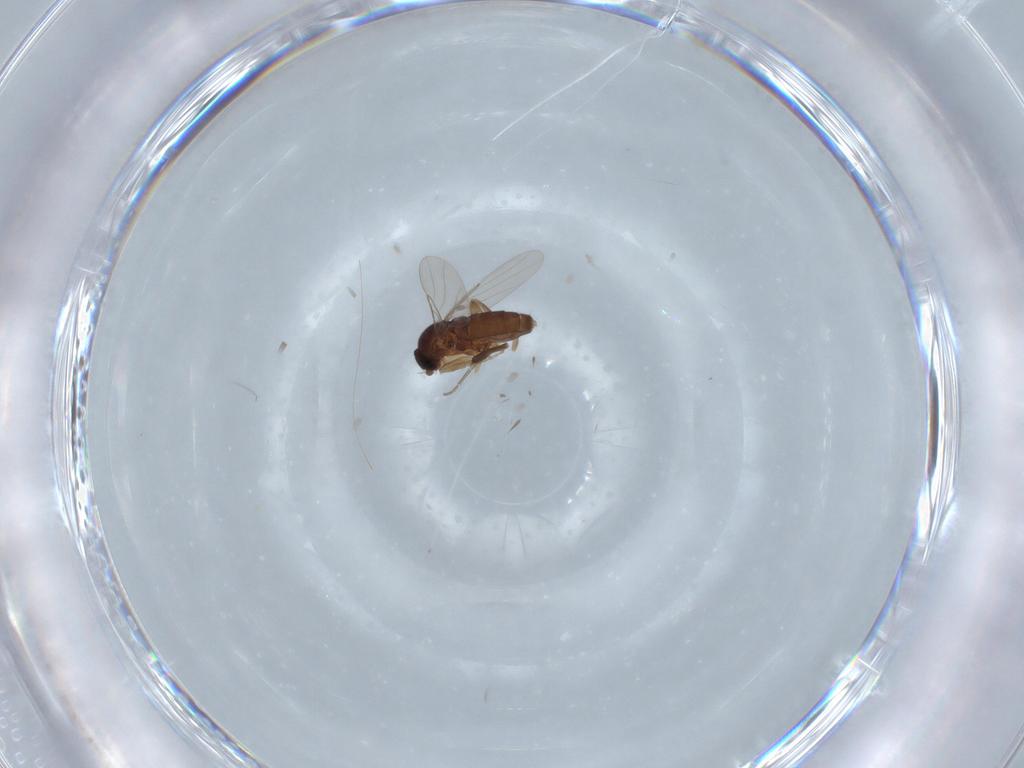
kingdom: Animalia
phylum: Arthropoda
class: Insecta
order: Diptera
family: Phoridae
